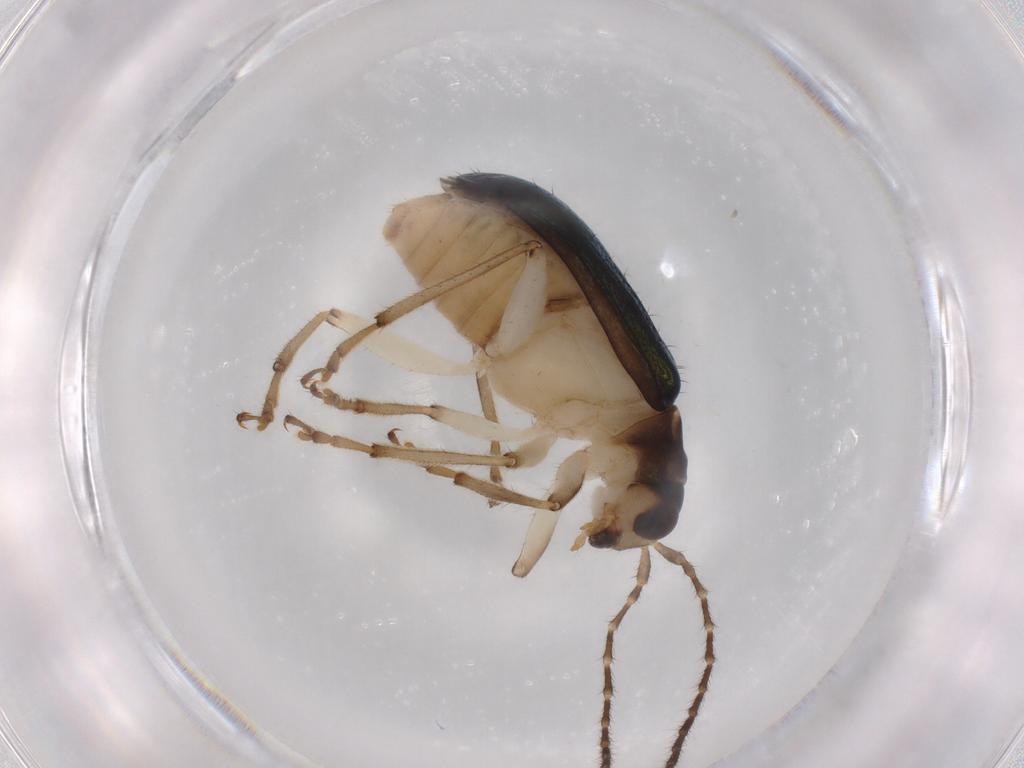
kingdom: Animalia
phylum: Arthropoda
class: Insecta
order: Coleoptera
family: Chrysomelidae
